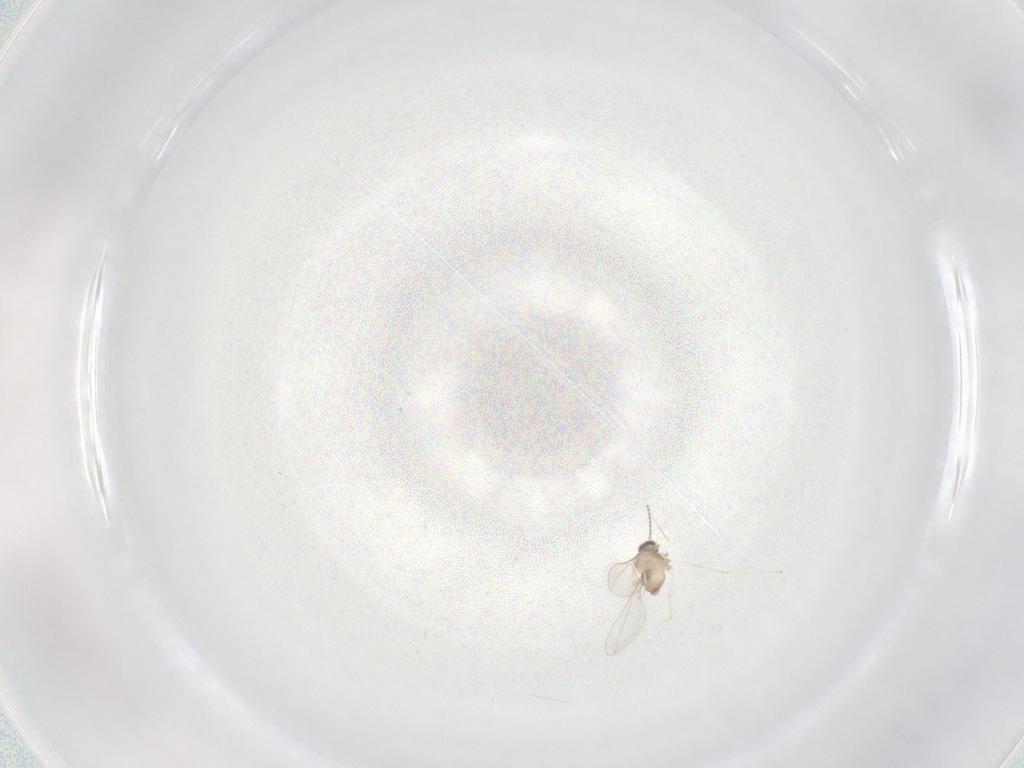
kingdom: Animalia
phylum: Arthropoda
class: Insecta
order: Diptera
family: Cecidomyiidae
